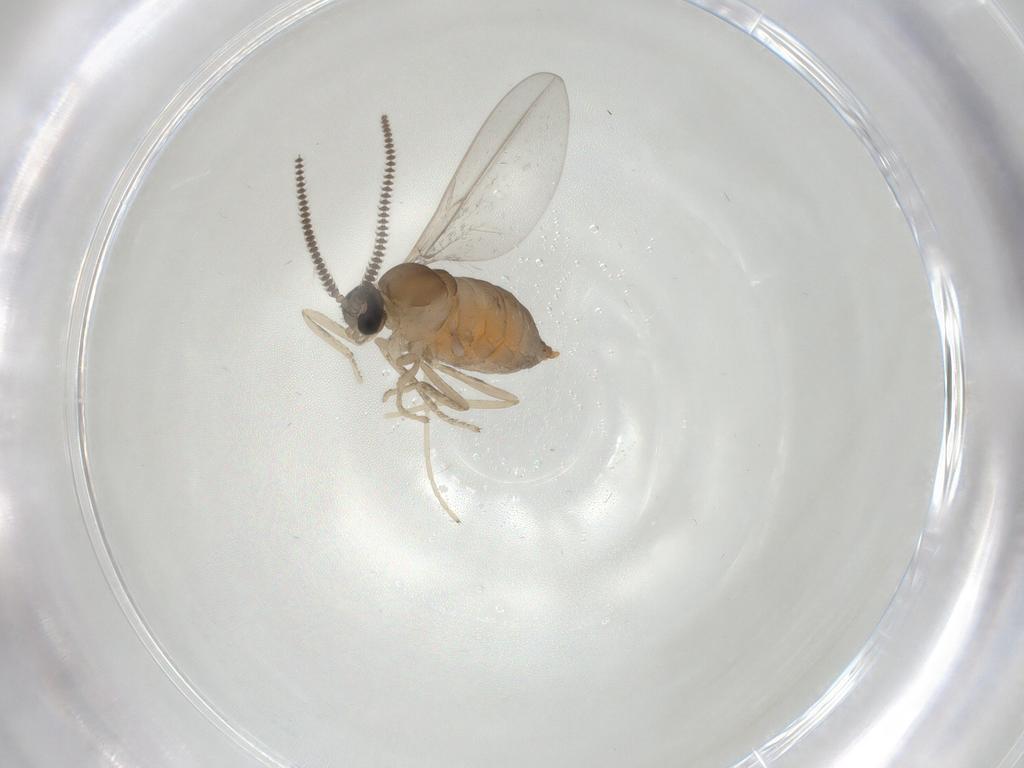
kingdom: Animalia
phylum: Arthropoda
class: Insecta
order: Diptera
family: Cecidomyiidae
